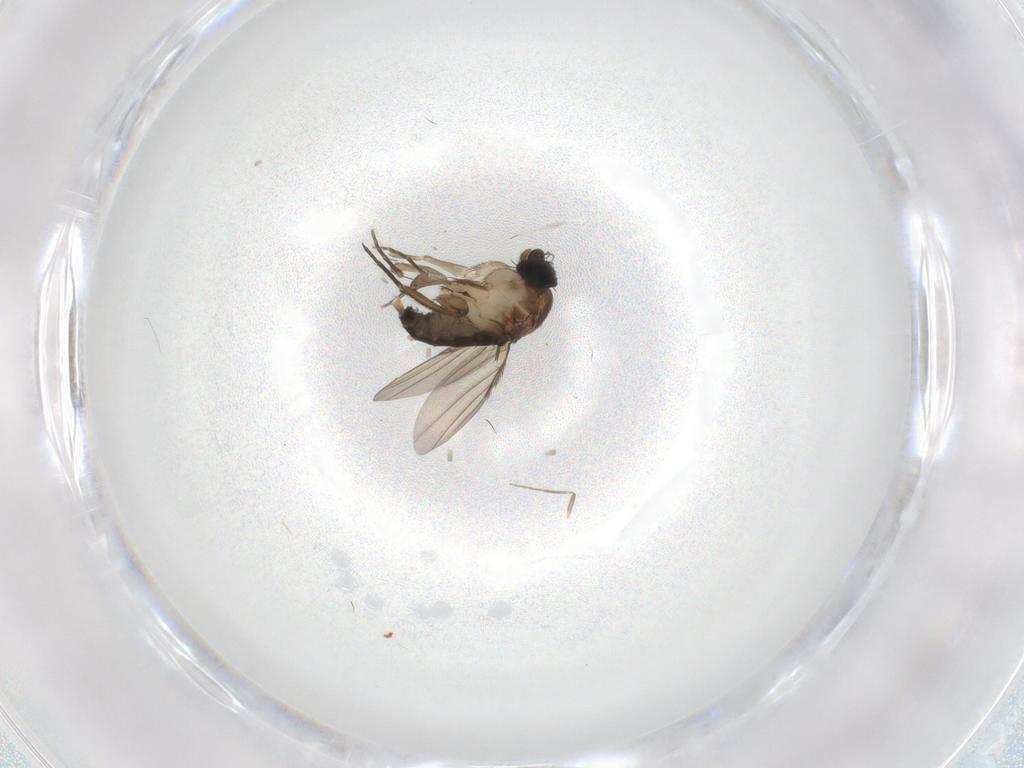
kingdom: Animalia
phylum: Arthropoda
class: Insecta
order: Diptera
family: Phoridae
